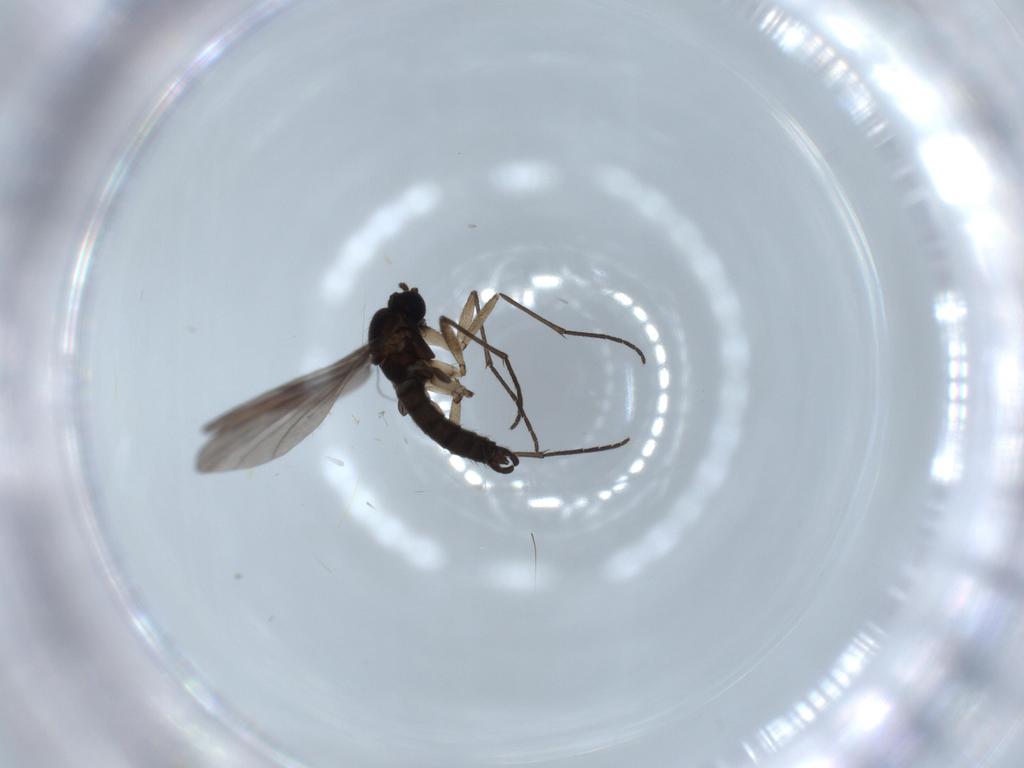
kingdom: Animalia
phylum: Arthropoda
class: Insecta
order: Diptera
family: Sciaridae
